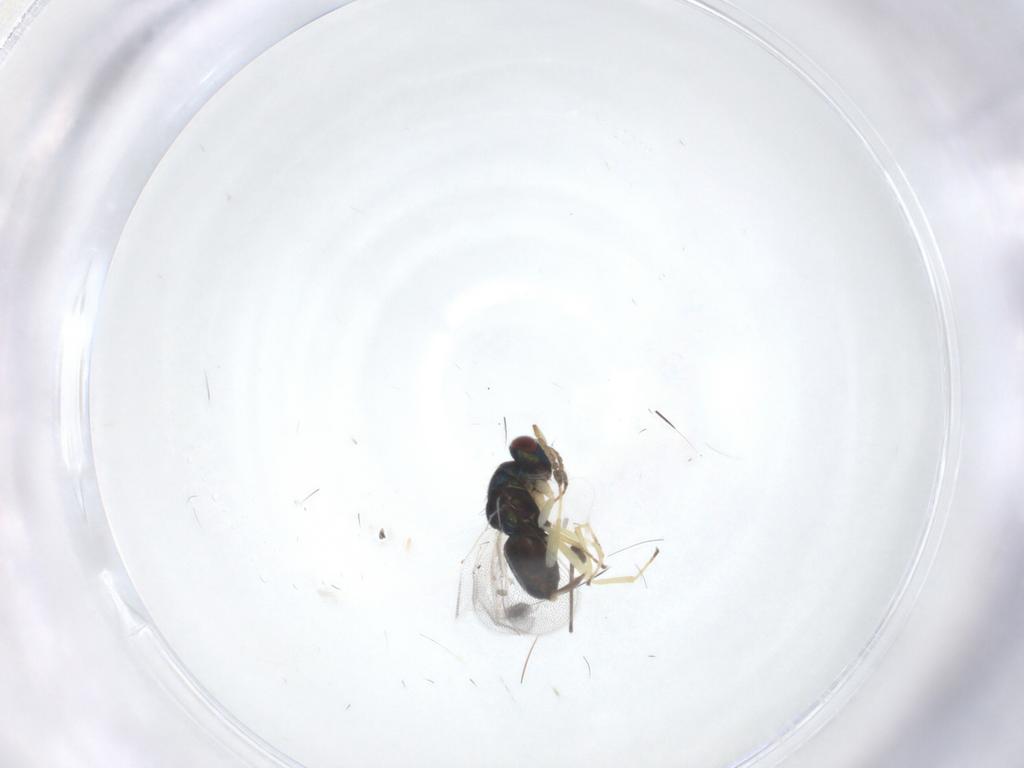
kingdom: Animalia
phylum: Arthropoda
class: Insecta
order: Hymenoptera
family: Eulophidae
